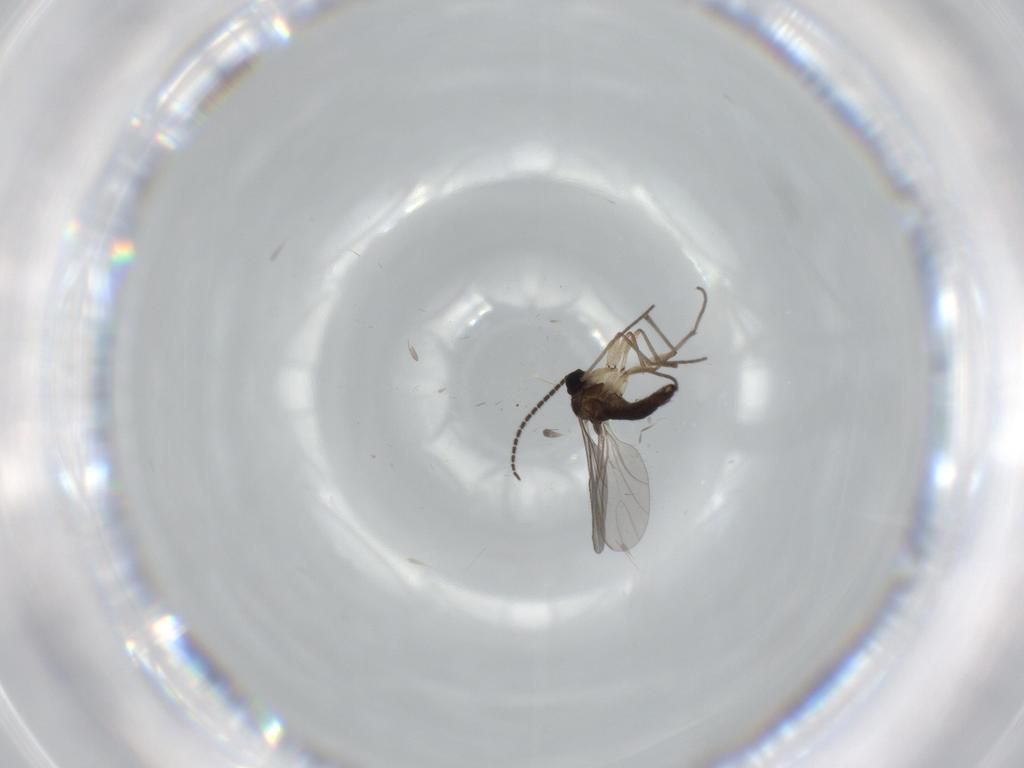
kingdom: Animalia
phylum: Arthropoda
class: Insecta
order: Diptera
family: Sciaridae
